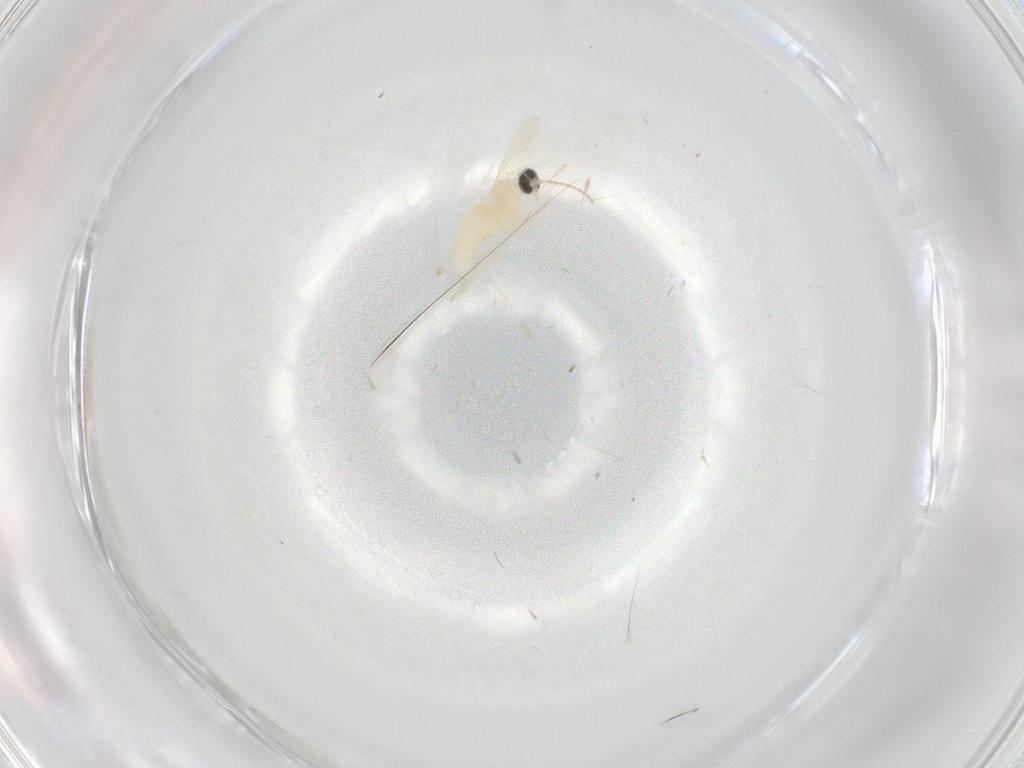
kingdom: Animalia
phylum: Arthropoda
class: Insecta
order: Diptera
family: Cecidomyiidae
